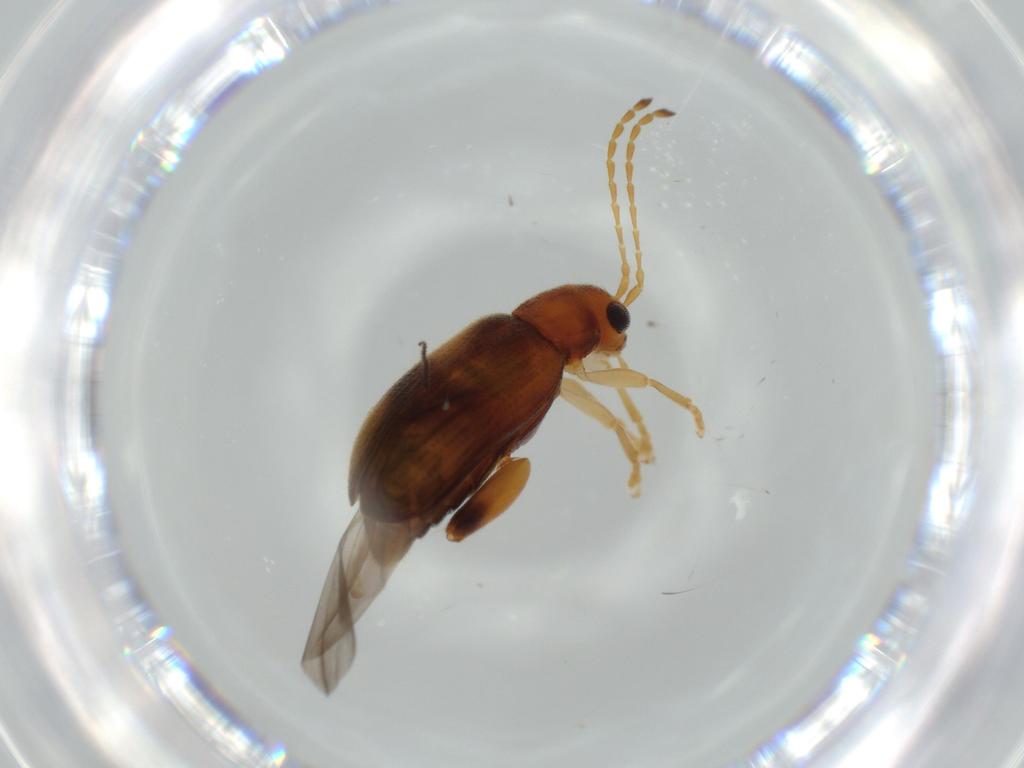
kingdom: Animalia
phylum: Arthropoda
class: Insecta
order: Coleoptera
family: Chrysomelidae
